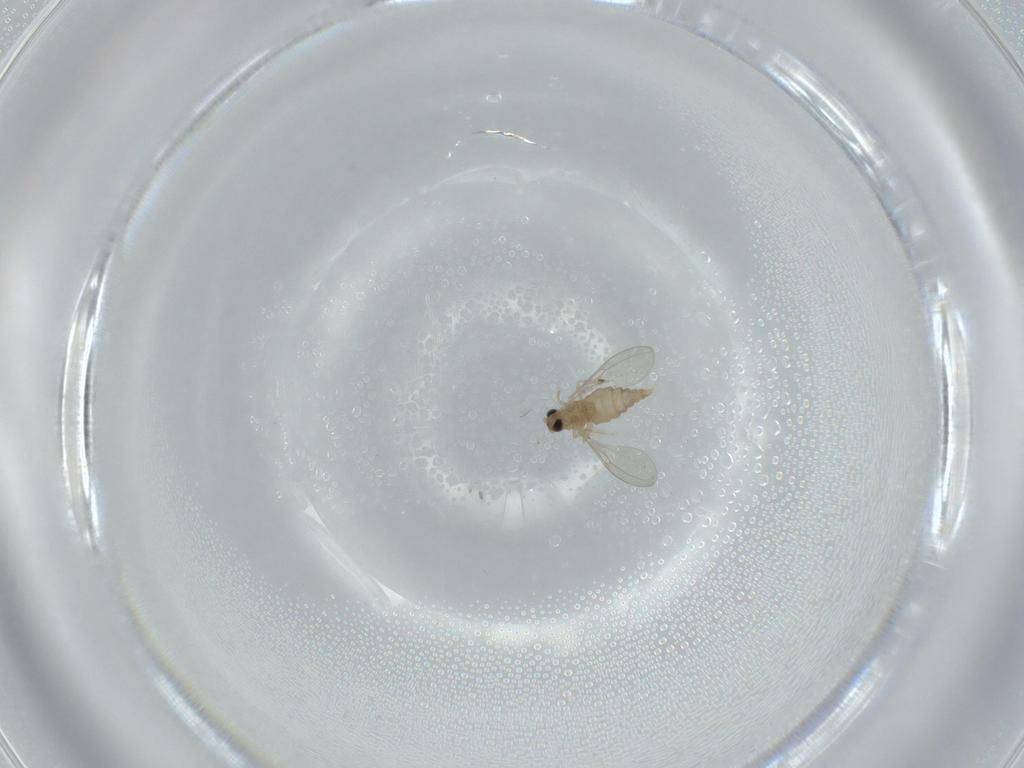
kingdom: Animalia
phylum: Arthropoda
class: Insecta
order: Diptera
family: Cecidomyiidae
